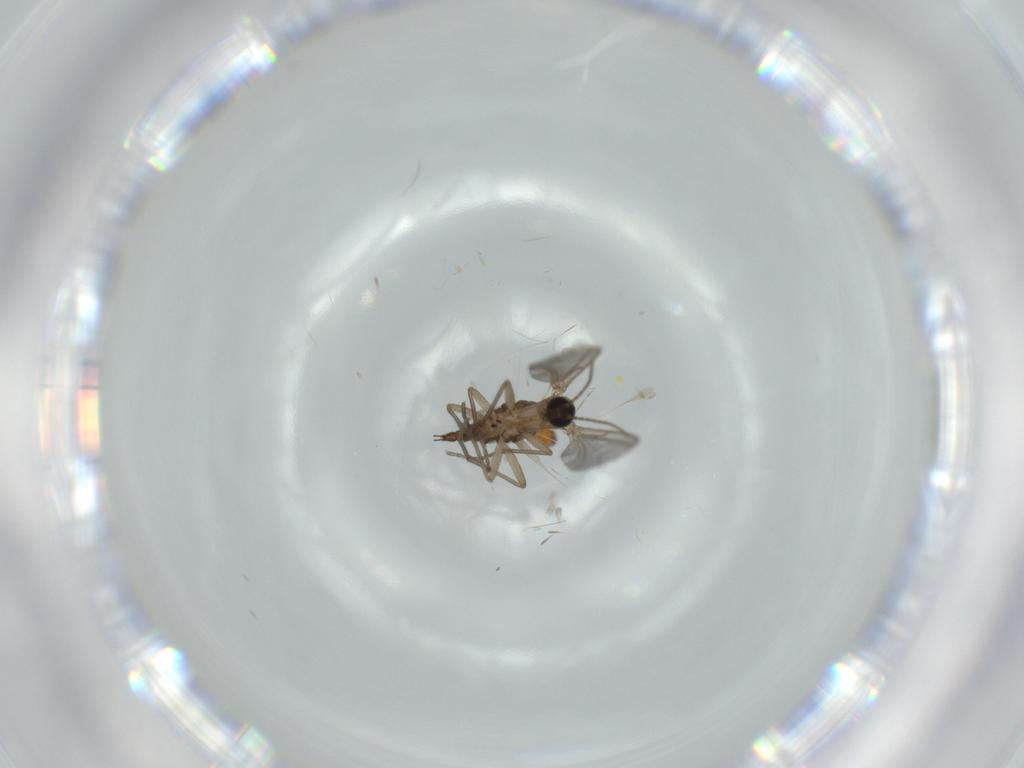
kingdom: Animalia
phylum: Arthropoda
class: Insecta
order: Diptera
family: Sciaridae
